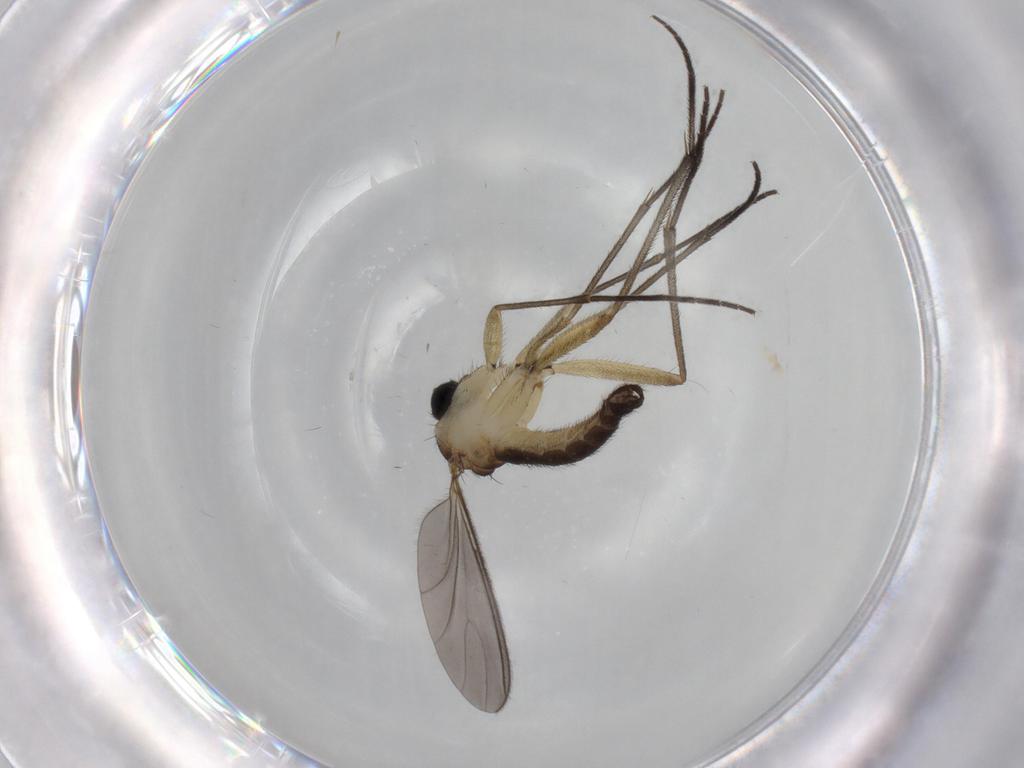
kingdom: Animalia
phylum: Arthropoda
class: Insecta
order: Diptera
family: Sciaridae
